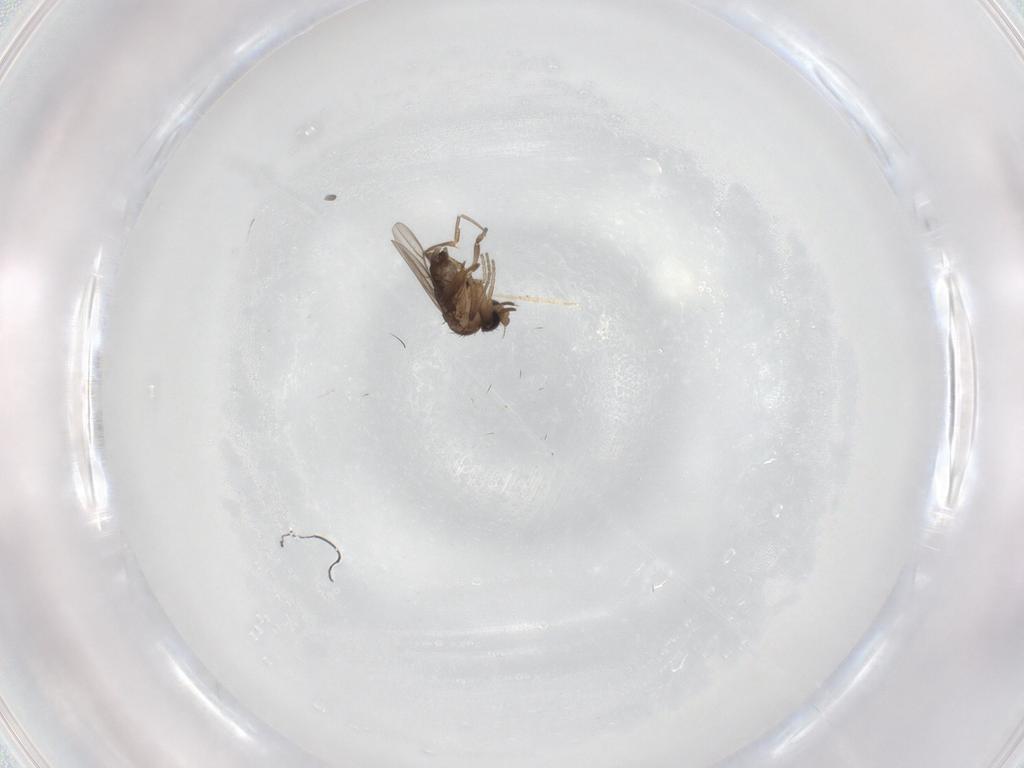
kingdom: Animalia
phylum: Arthropoda
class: Insecta
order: Diptera
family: Phoridae
